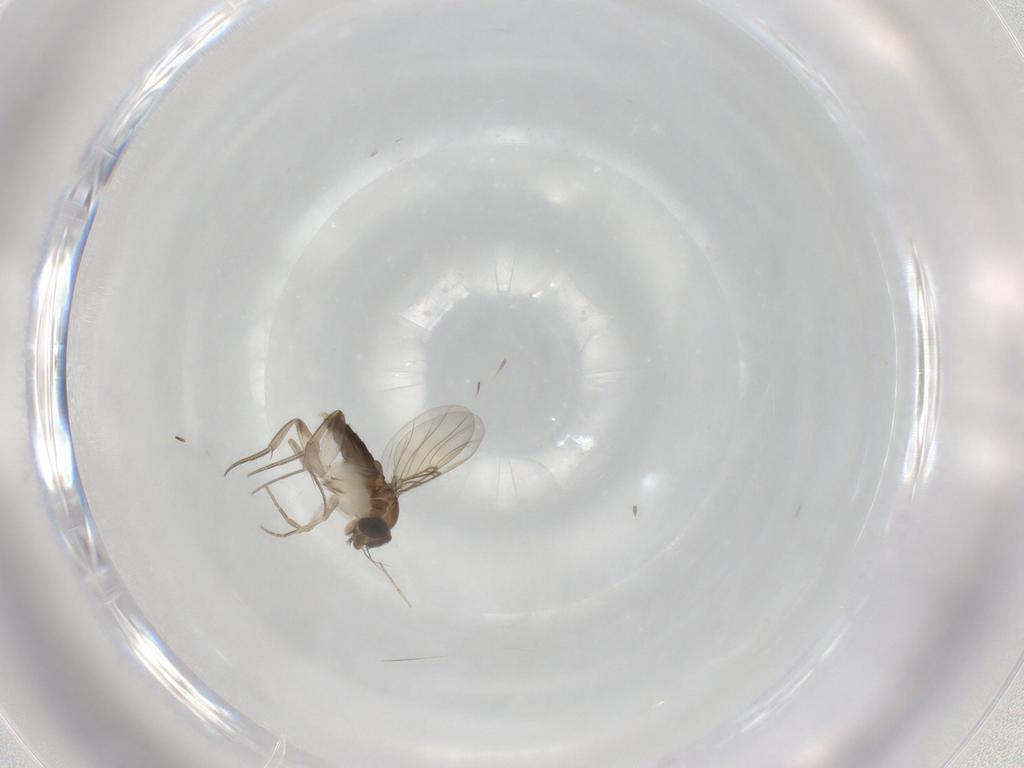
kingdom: Animalia
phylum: Arthropoda
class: Insecta
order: Diptera
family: Phoridae
